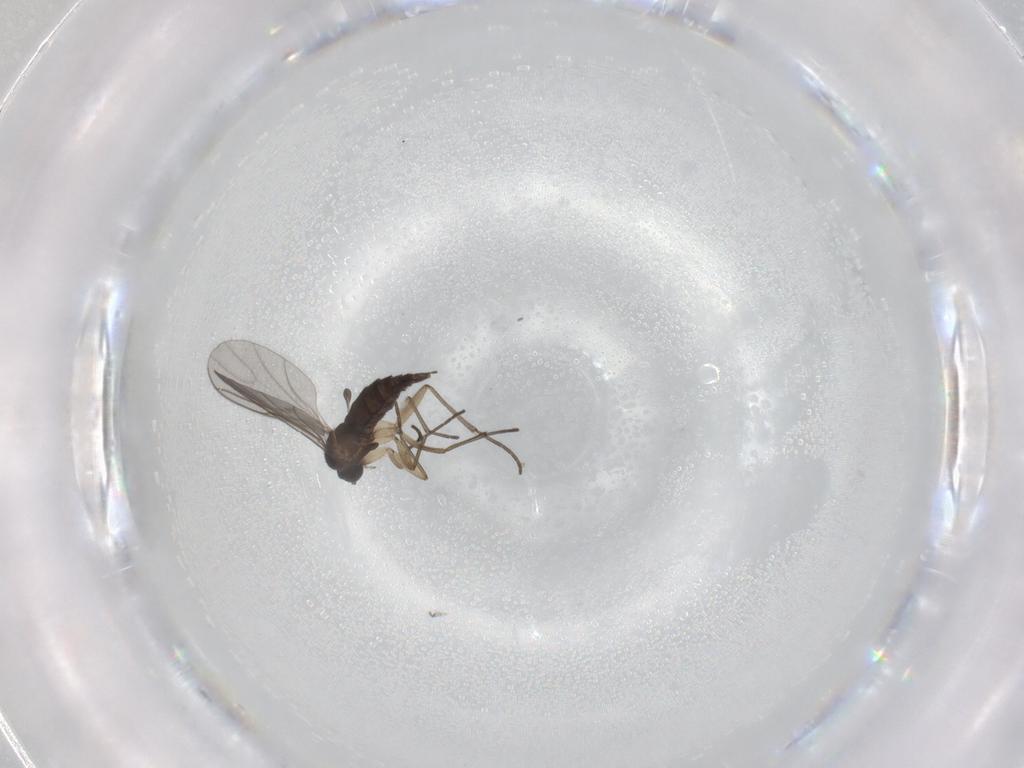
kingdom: Animalia
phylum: Arthropoda
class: Insecta
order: Diptera
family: Sciaridae
